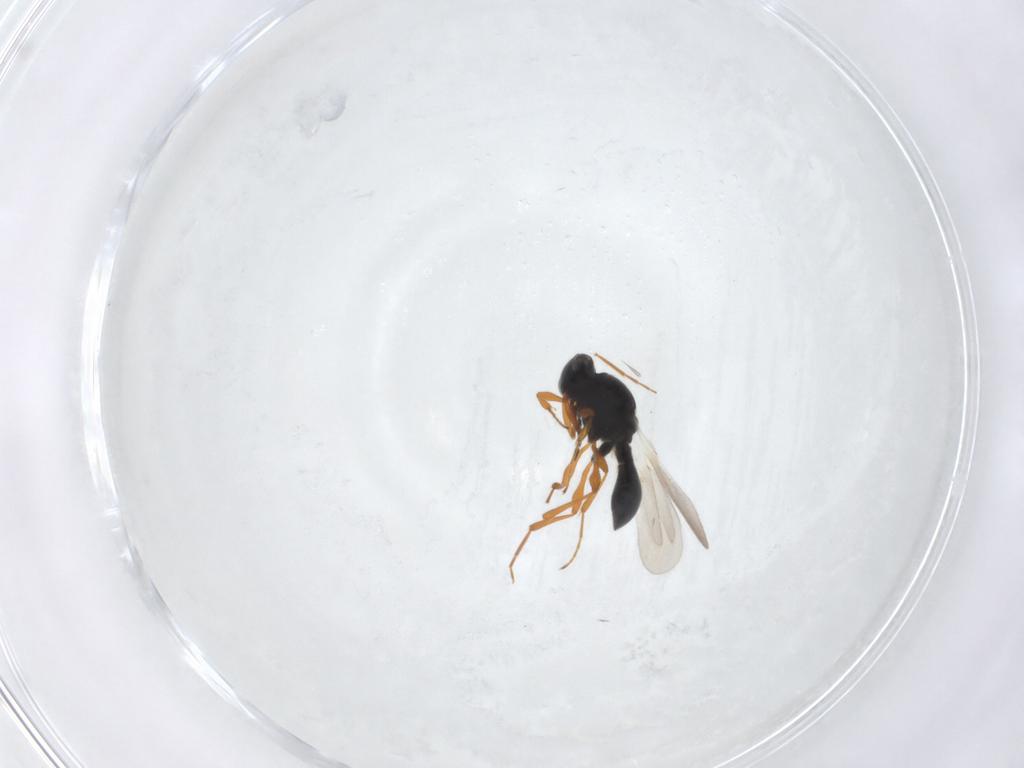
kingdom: Animalia
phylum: Arthropoda
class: Insecta
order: Hymenoptera
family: Platygastridae
